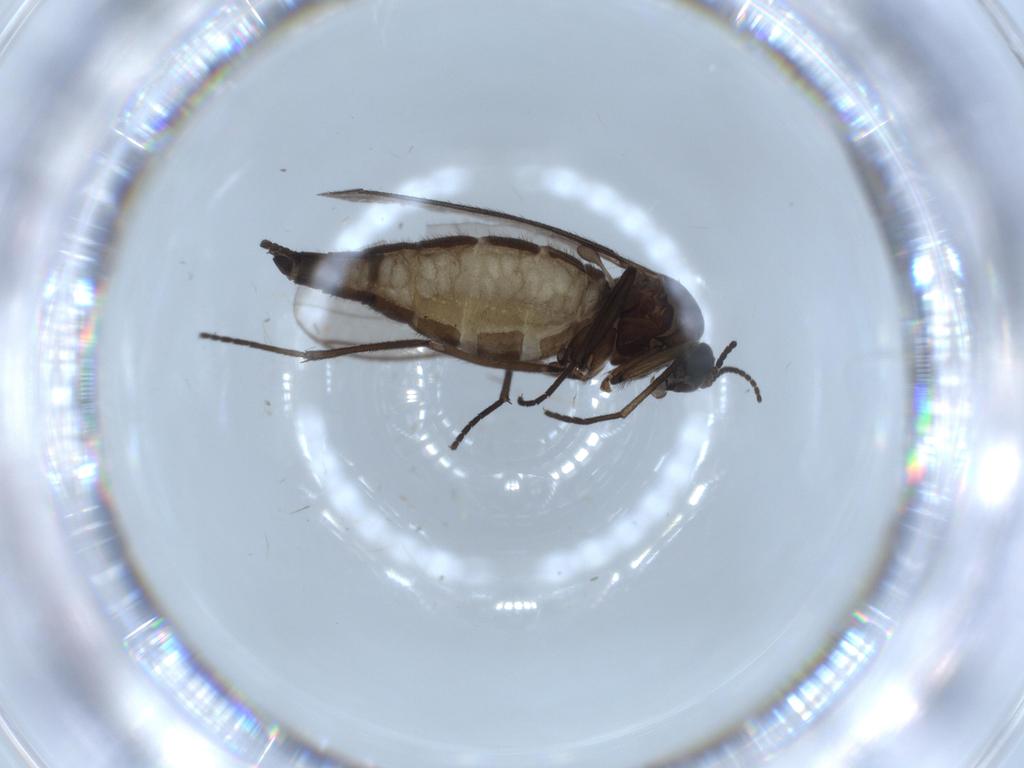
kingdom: Animalia
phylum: Arthropoda
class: Insecta
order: Diptera
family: Sciaridae
